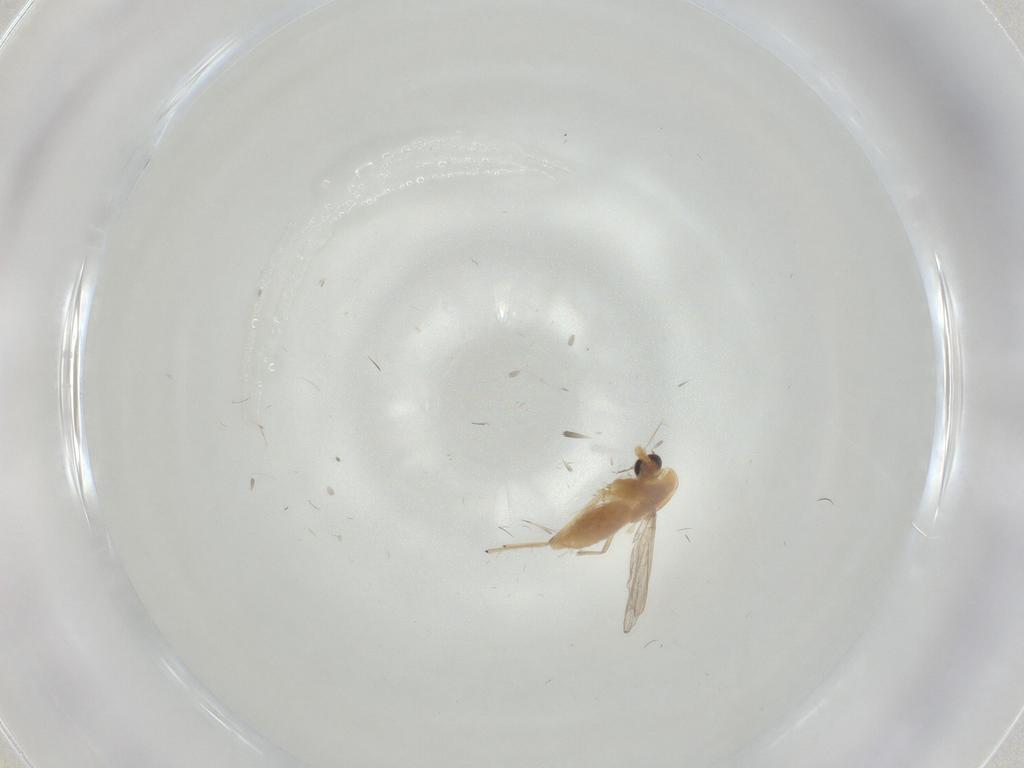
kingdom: Animalia
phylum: Arthropoda
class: Insecta
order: Diptera
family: Chironomidae
